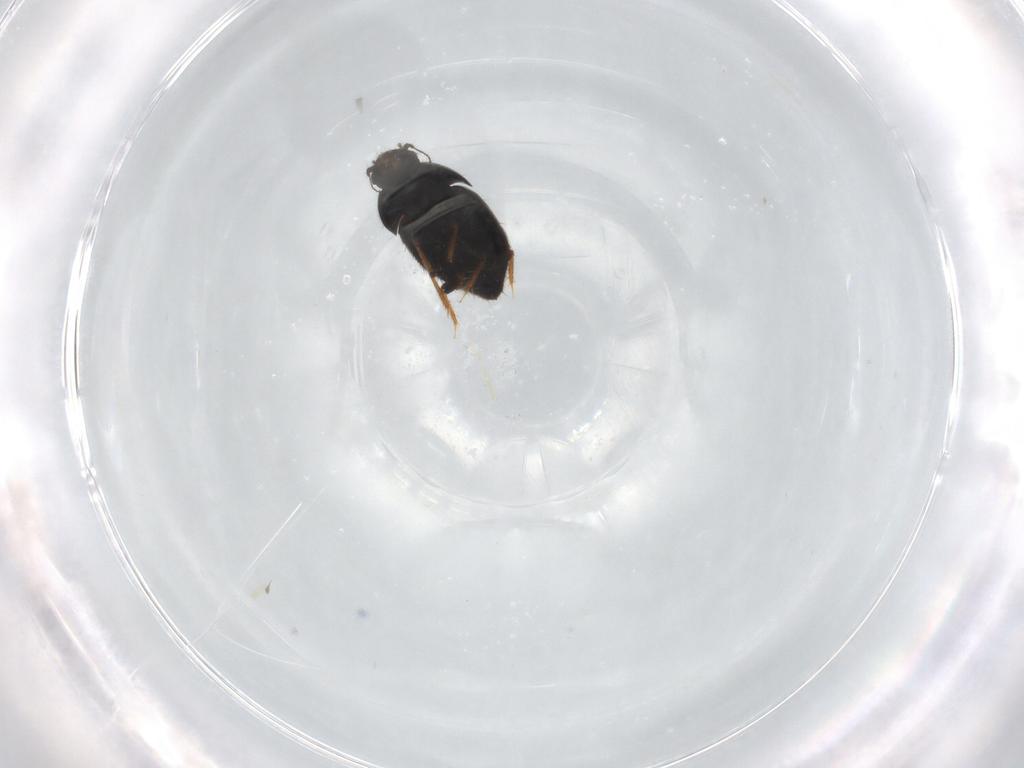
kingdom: Animalia
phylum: Arthropoda
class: Insecta
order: Coleoptera
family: Ptiliidae
